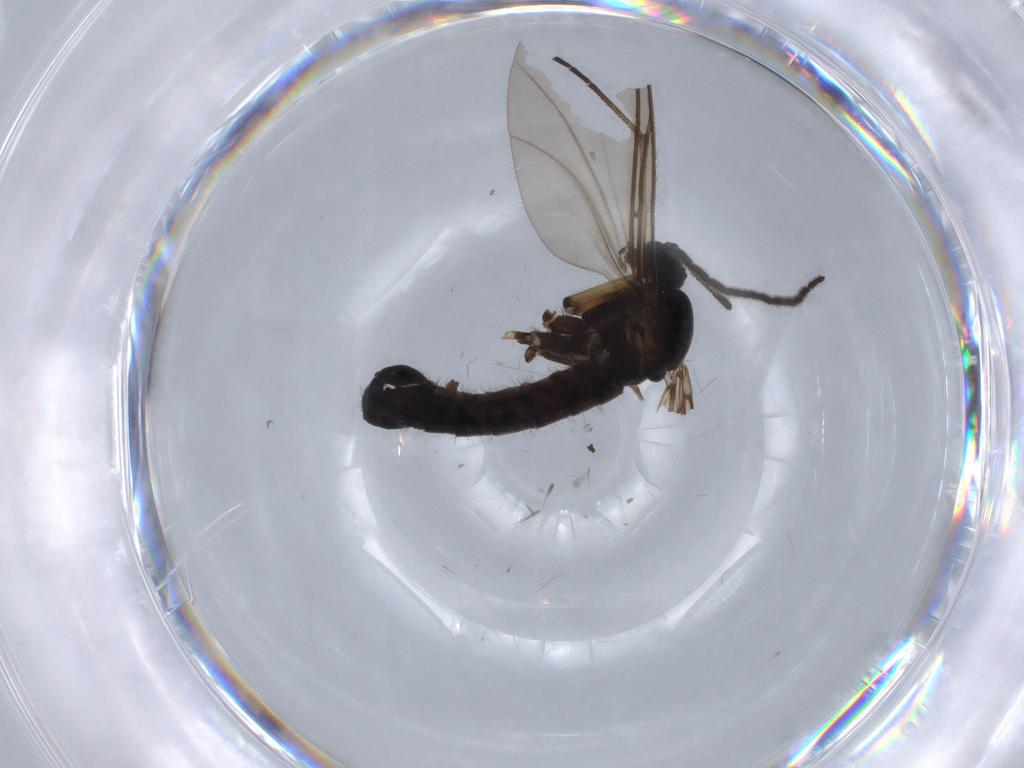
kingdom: Animalia
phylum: Arthropoda
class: Insecta
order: Diptera
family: Sciaridae
